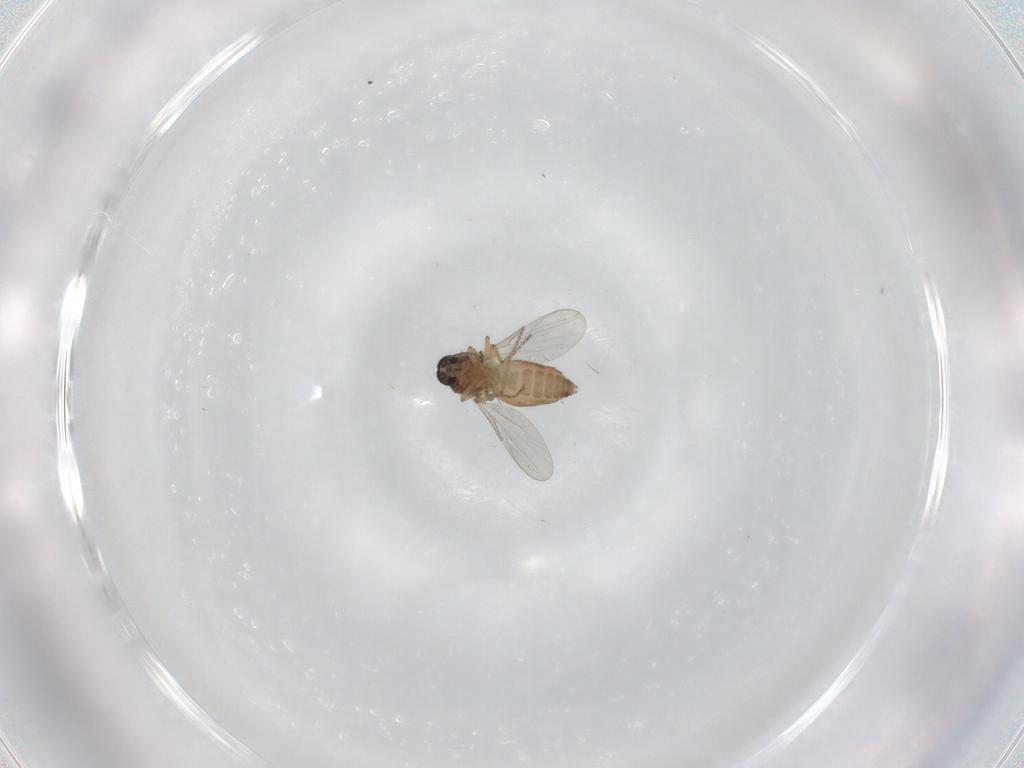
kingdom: Animalia
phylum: Arthropoda
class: Insecta
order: Diptera
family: Ceratopogonidae
